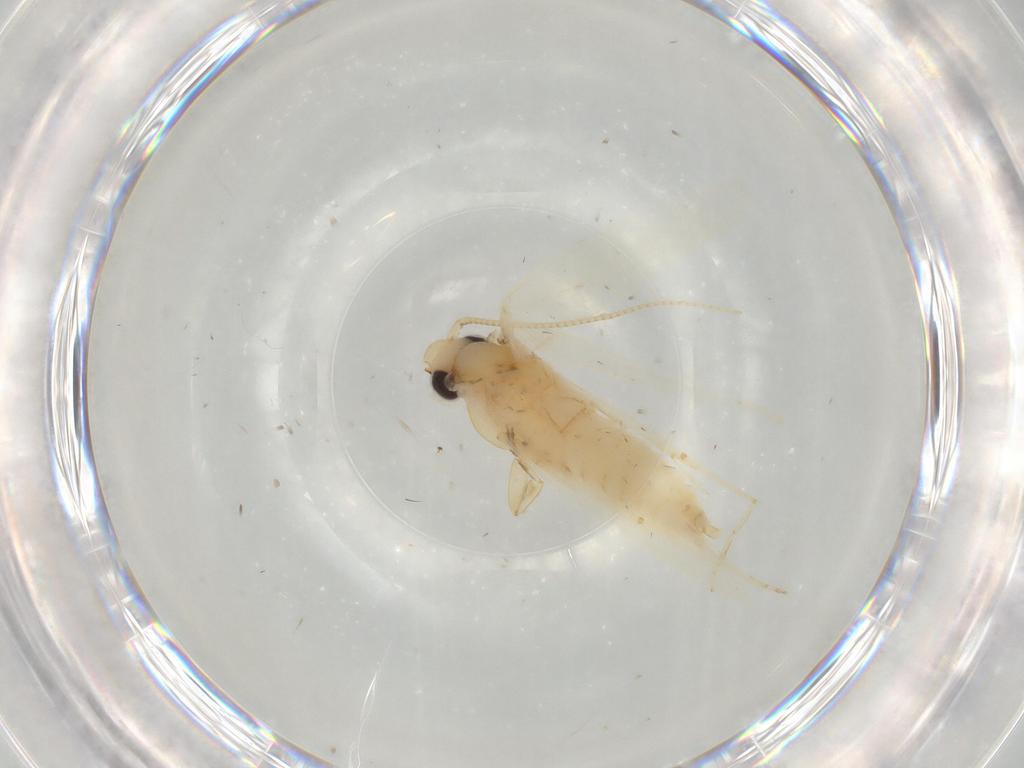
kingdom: Animalia
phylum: Arthropoda
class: Insecta
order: Lepidoptera
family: Tineidae
